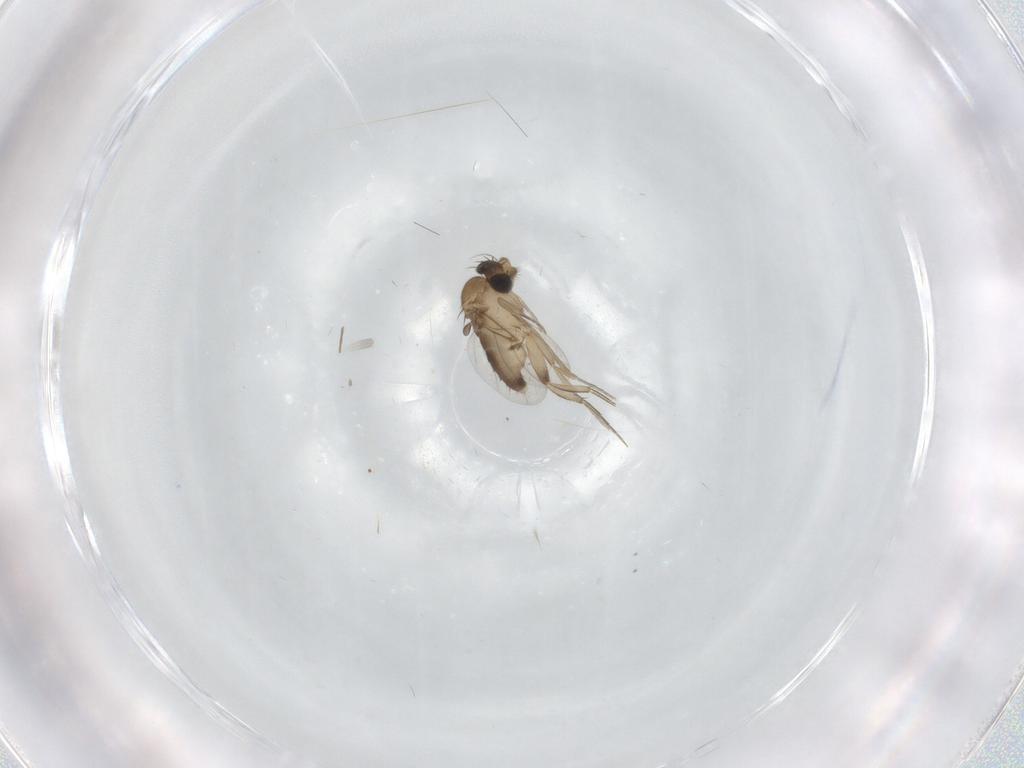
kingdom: Animalia
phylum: Arthropoda
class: Insecta
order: Diptera
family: Phoridae
